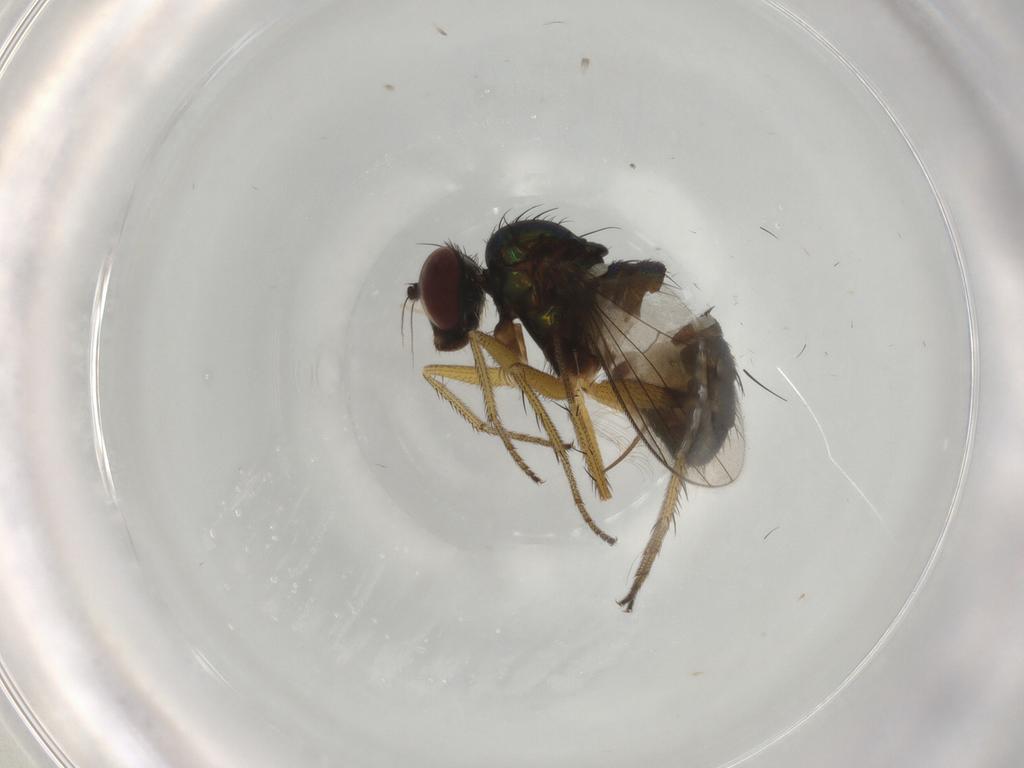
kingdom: Animalia
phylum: Arthropoda
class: Insecta
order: Diptera
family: Dolichopodidae
